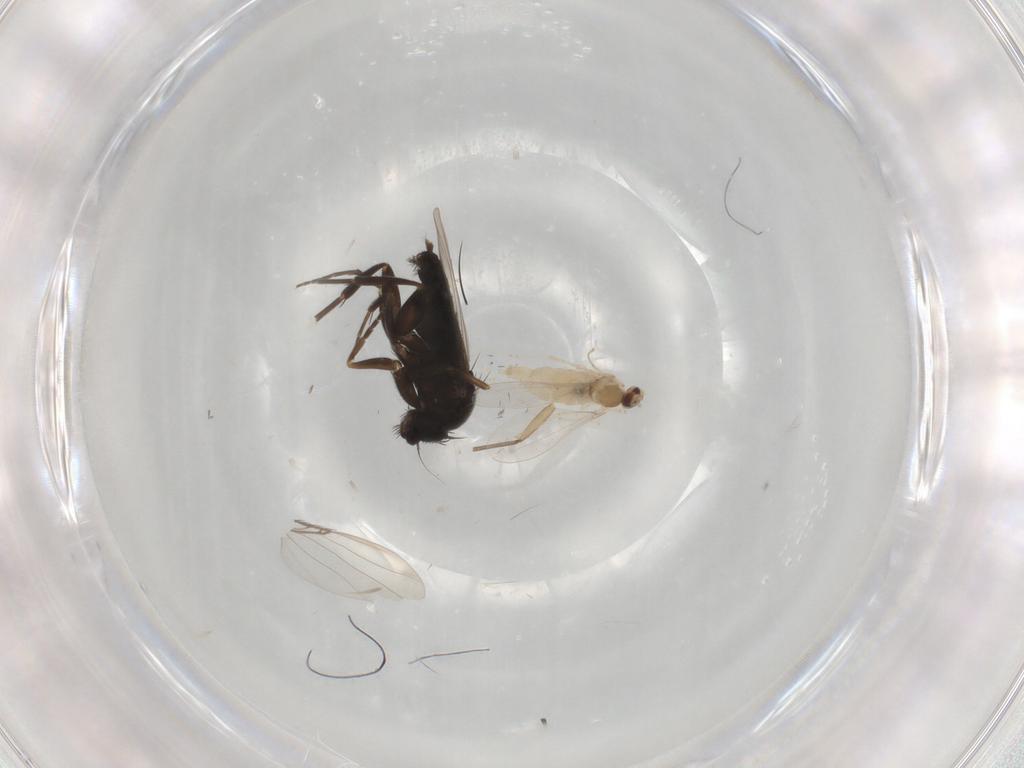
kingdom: Animalia
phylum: Arthropoda
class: Insecta
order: Diptera
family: Phoridae
